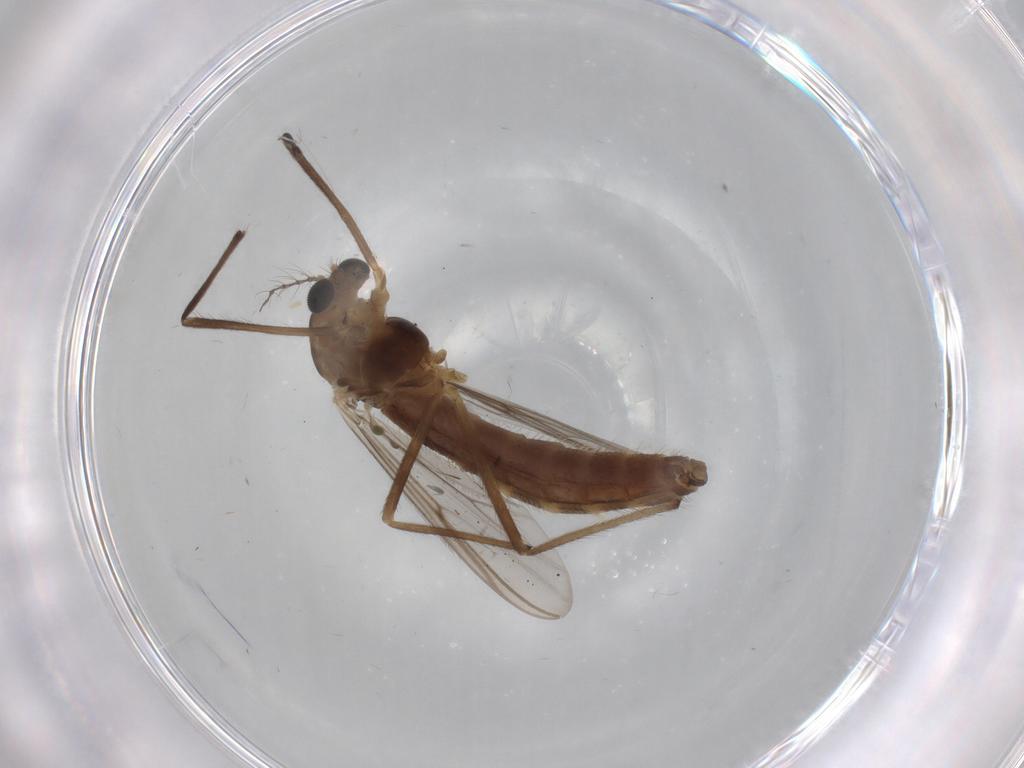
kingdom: Animalia
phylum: Arthropoda
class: Insecta
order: Diptera
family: Chironomidae
